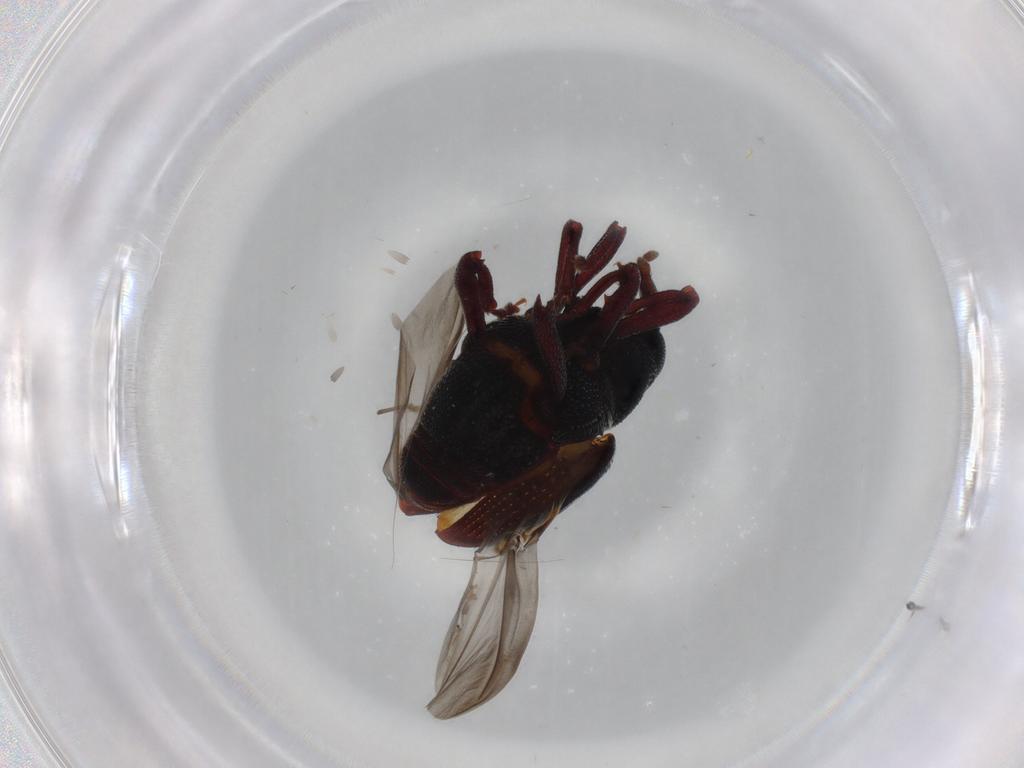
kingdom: Animalia
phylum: Arthropoda
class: Insecta
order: Coleoptera
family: Curculionidae
